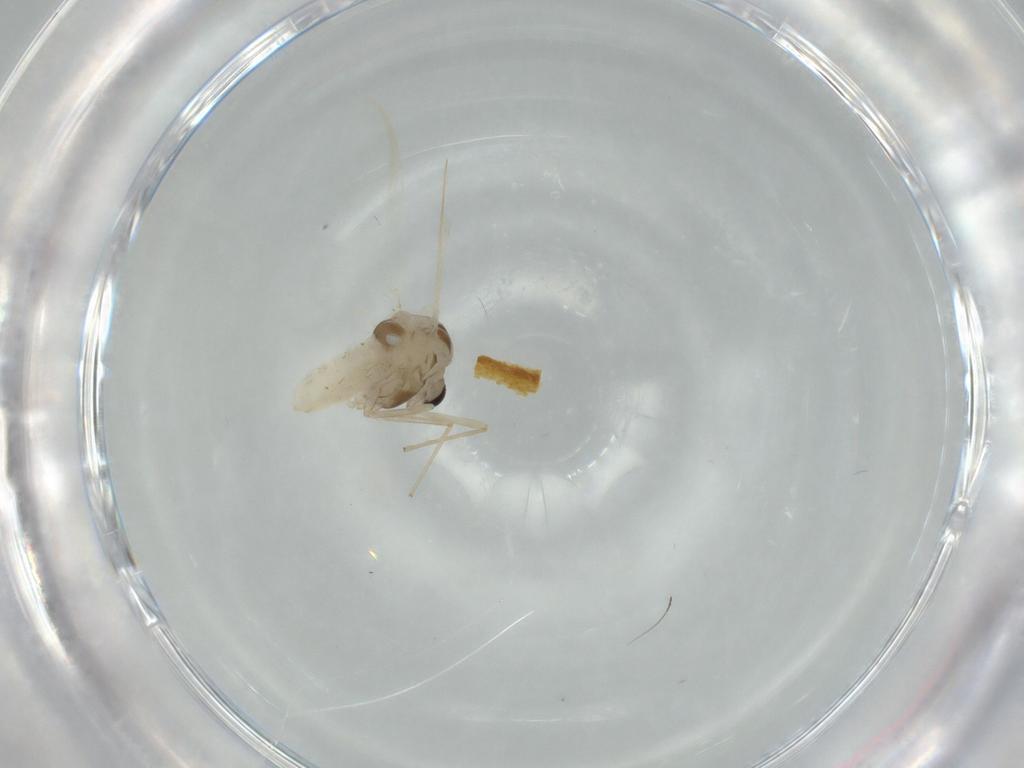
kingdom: Animalia
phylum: Arthropoda
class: Insecta
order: Diptera
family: Chironomidae
